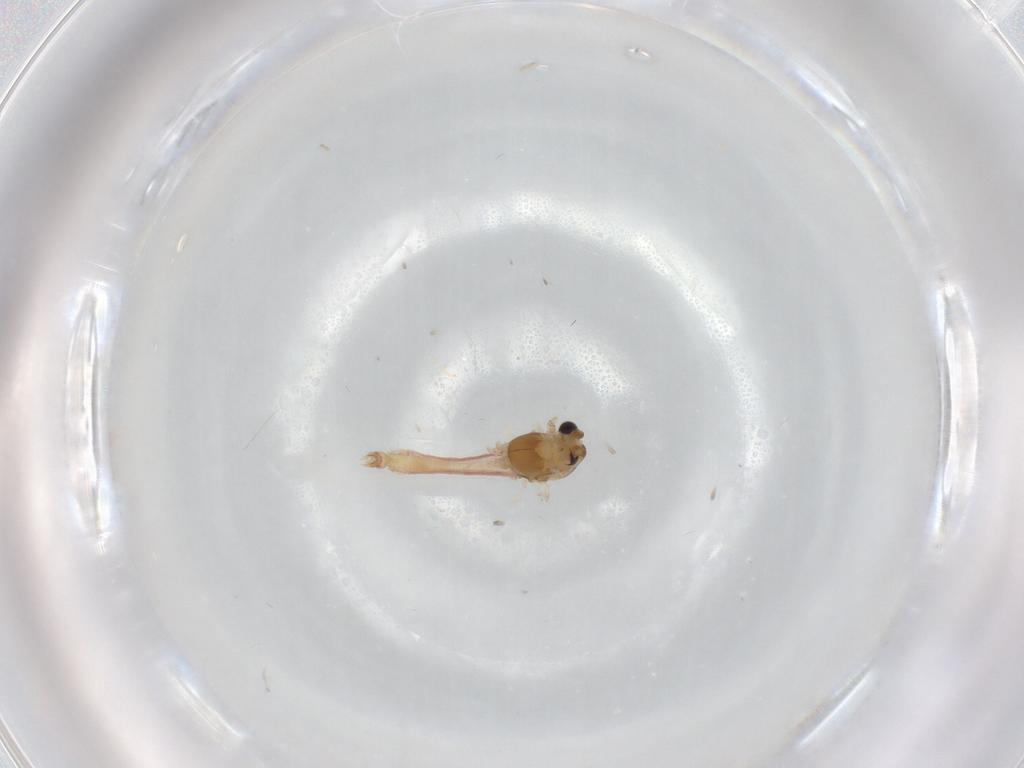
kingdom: Animalia
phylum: Arthropoda
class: Insecta
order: Diptera
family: Chironomidae
